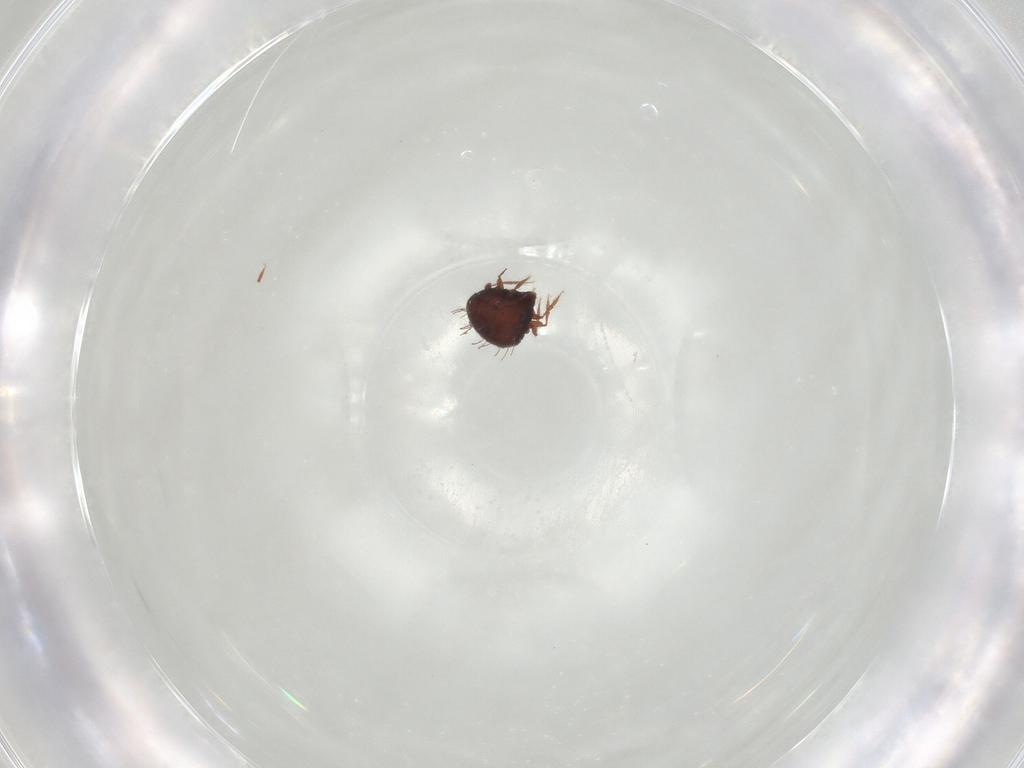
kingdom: Animalia
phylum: Arthropoda
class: Arachnida
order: Sarcoptiformes
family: Caloppiidae
